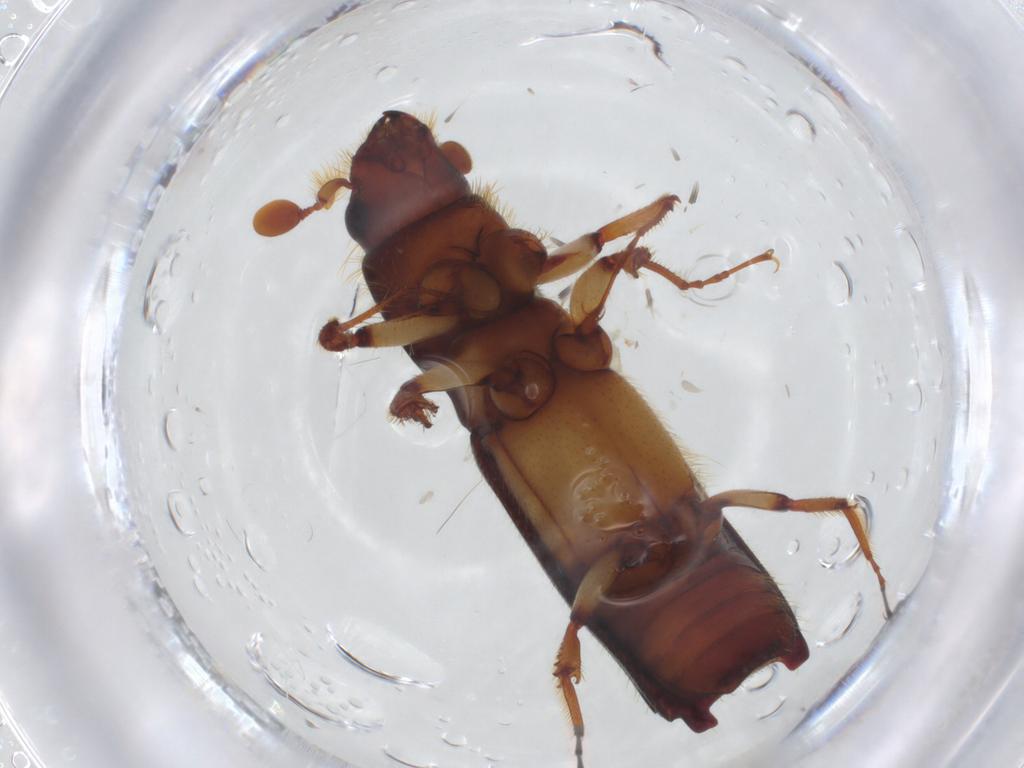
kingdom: Animalia
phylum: Arthropoda
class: Insecta
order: Coleoptera
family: Curculionidae
